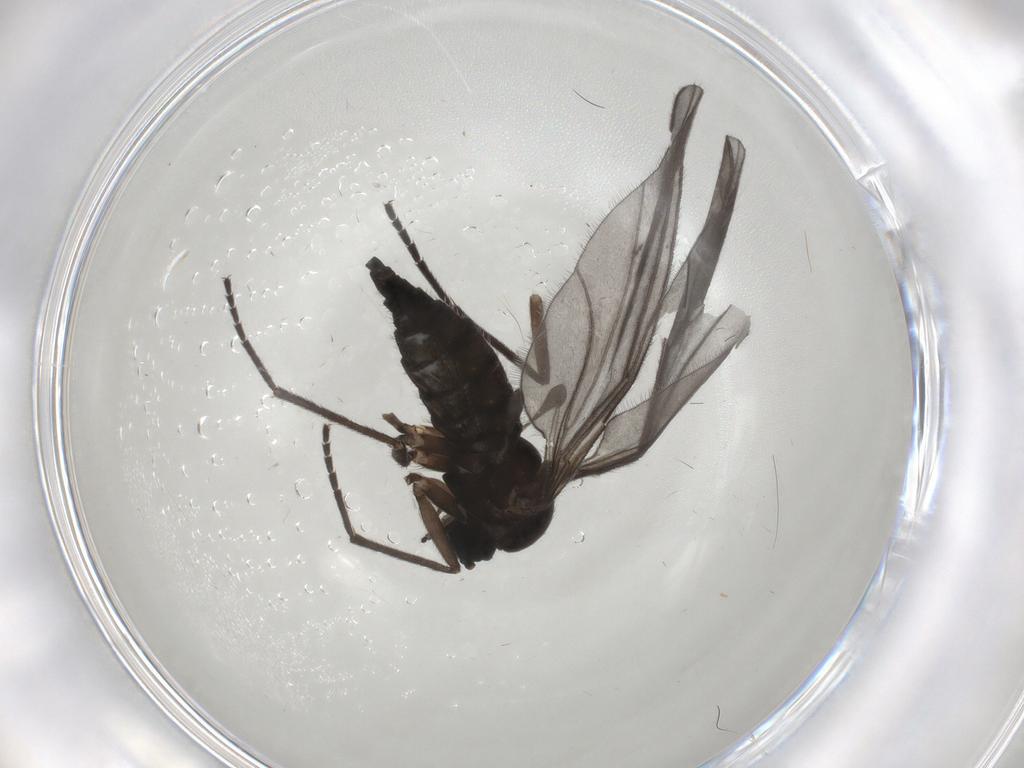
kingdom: Animalia
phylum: Arthropoda
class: Insecta
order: Diptera
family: Sciaridae
